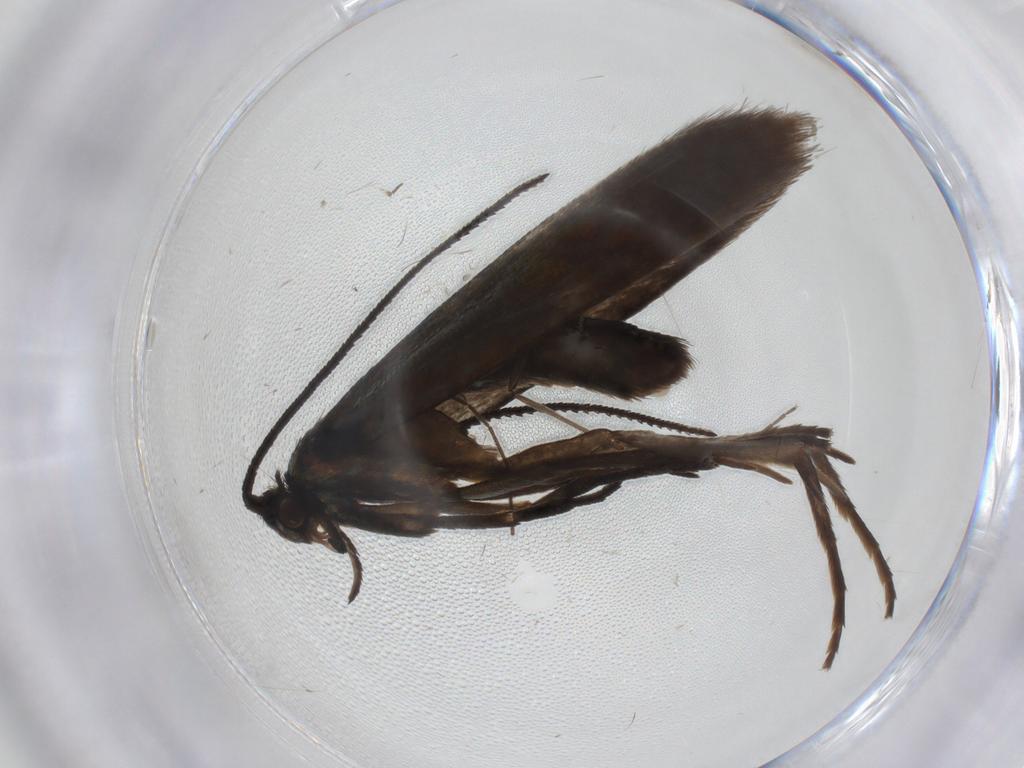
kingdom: Animalia
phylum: Arthropoda
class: Insecta
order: Lepidoptera
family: Argyresthiidae
